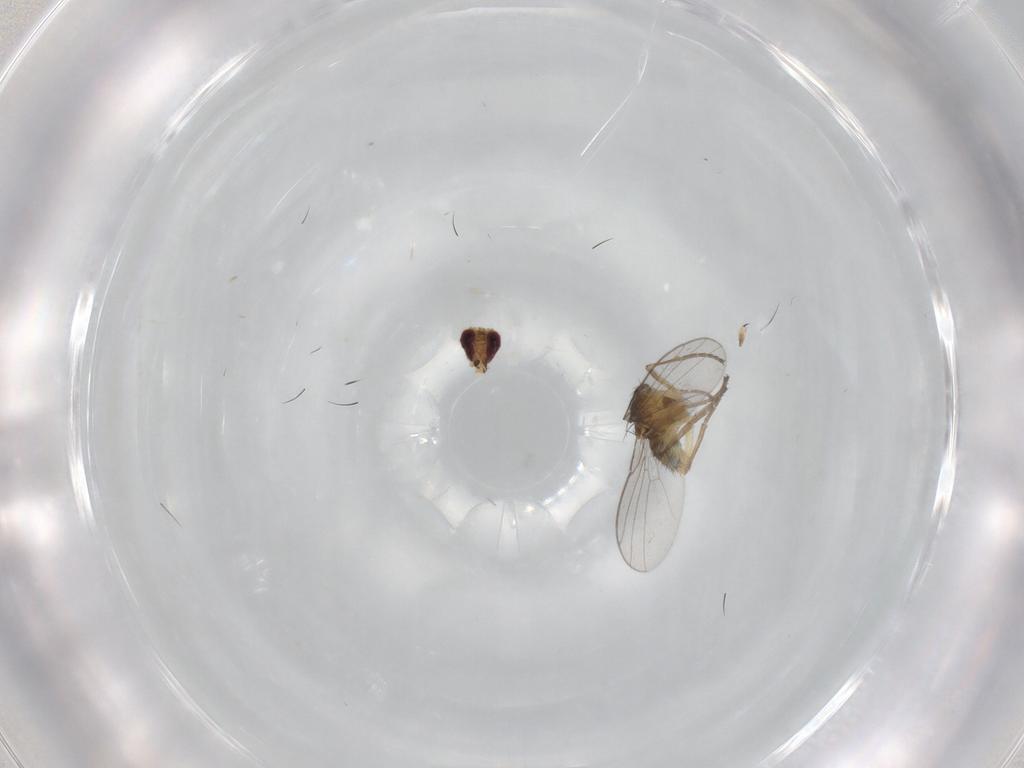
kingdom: Animalia
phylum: Arthropoda
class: Insecta
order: Diptera
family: Agromyzidae
